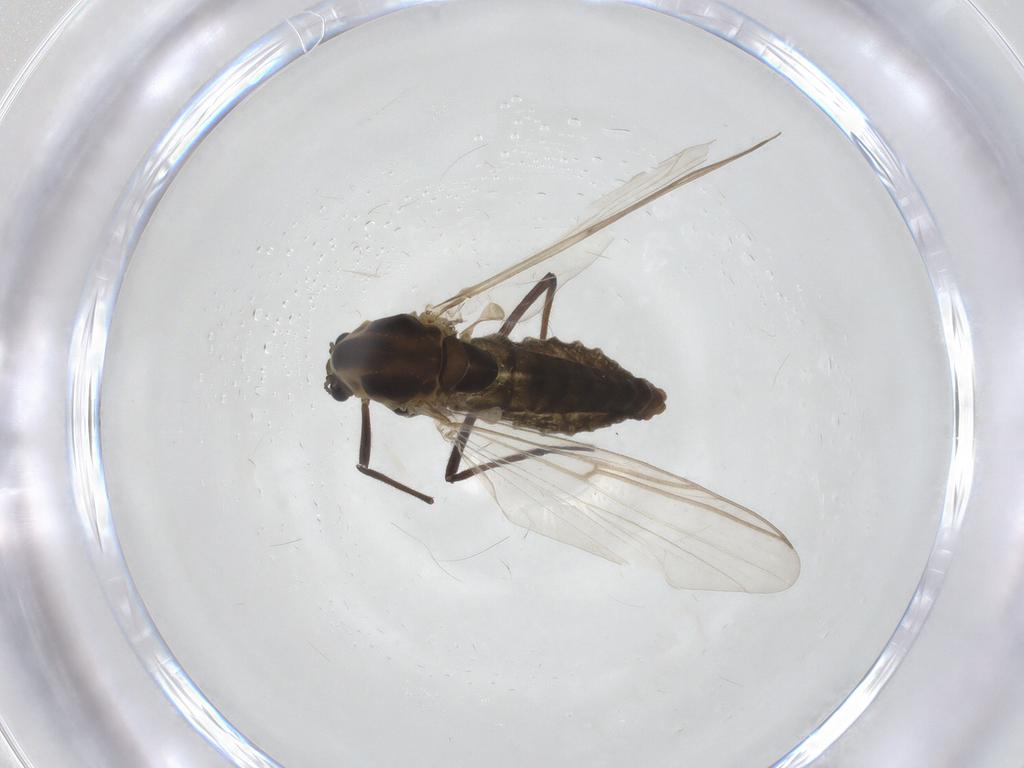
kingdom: Animalia
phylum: Arthropoda
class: Insecta
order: Diptera
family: Chironomidae
